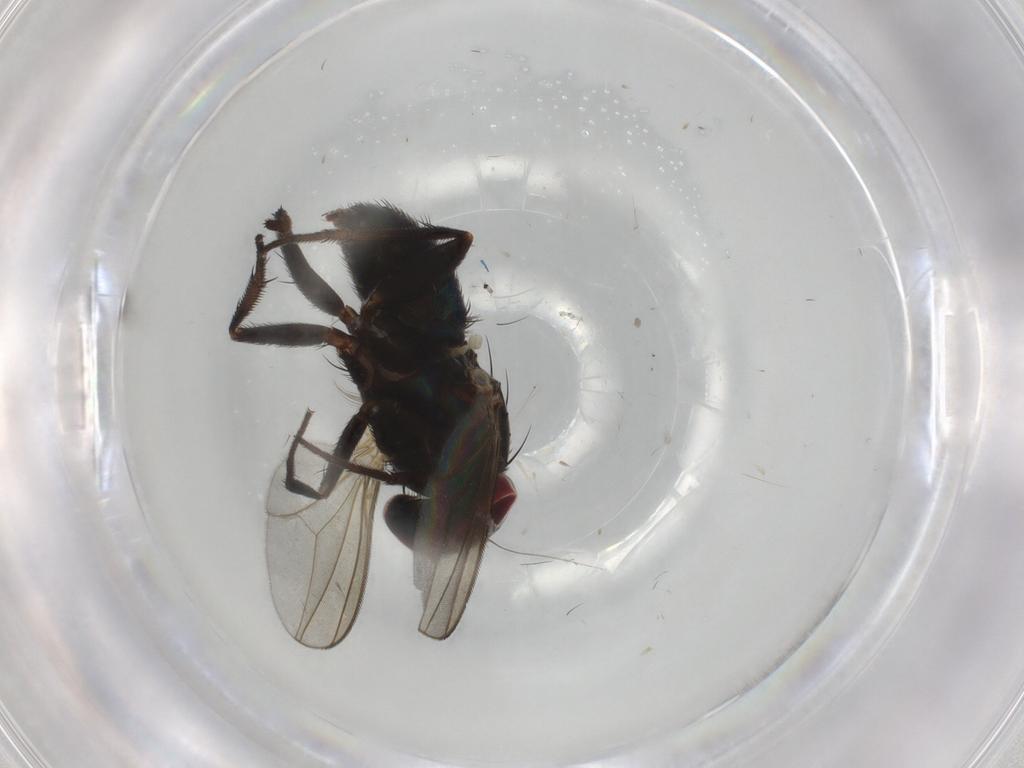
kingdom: Animalia
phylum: Arthropoda
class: Insecta
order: Diptera
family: Dolichopodidae
